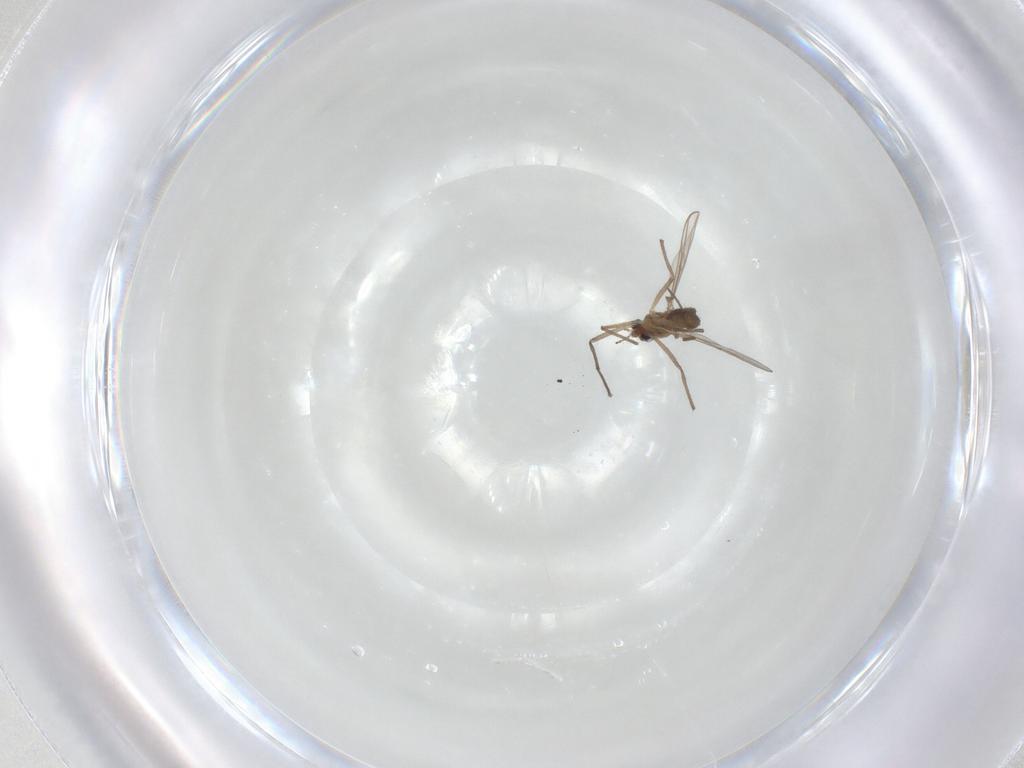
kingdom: Animalia
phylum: Arthropoda
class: Insecta
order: Diptera
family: Chironomidae
